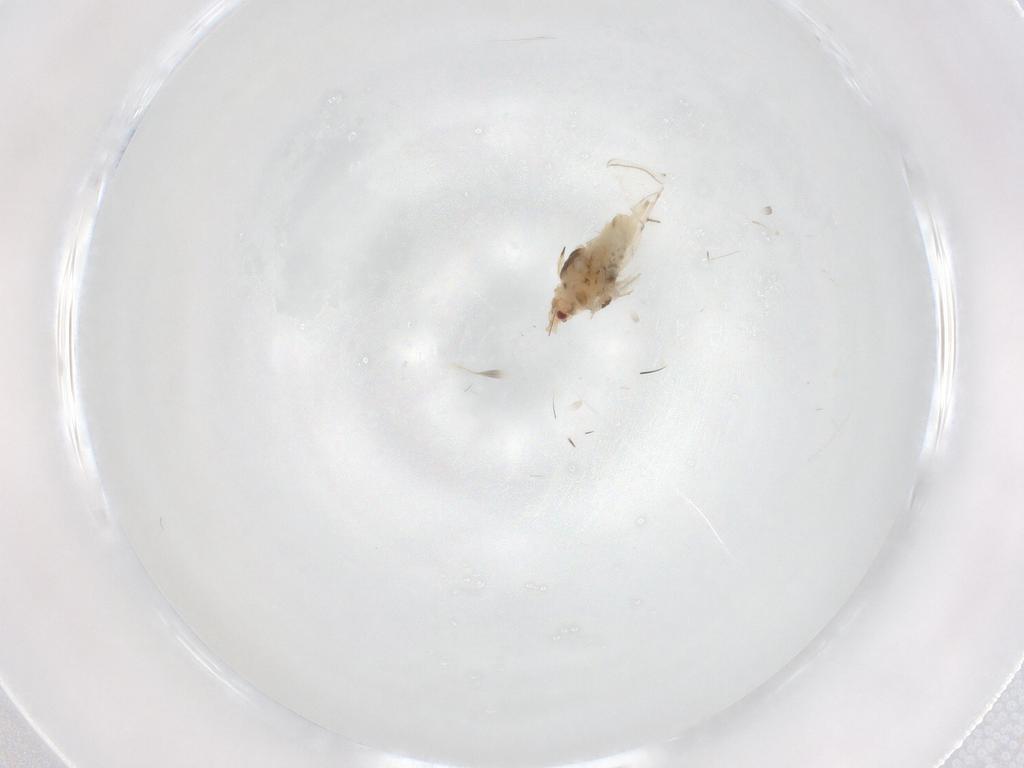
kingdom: Animalia
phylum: Arthropoda
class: Insecta
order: Hemiptera
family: Aphididae
